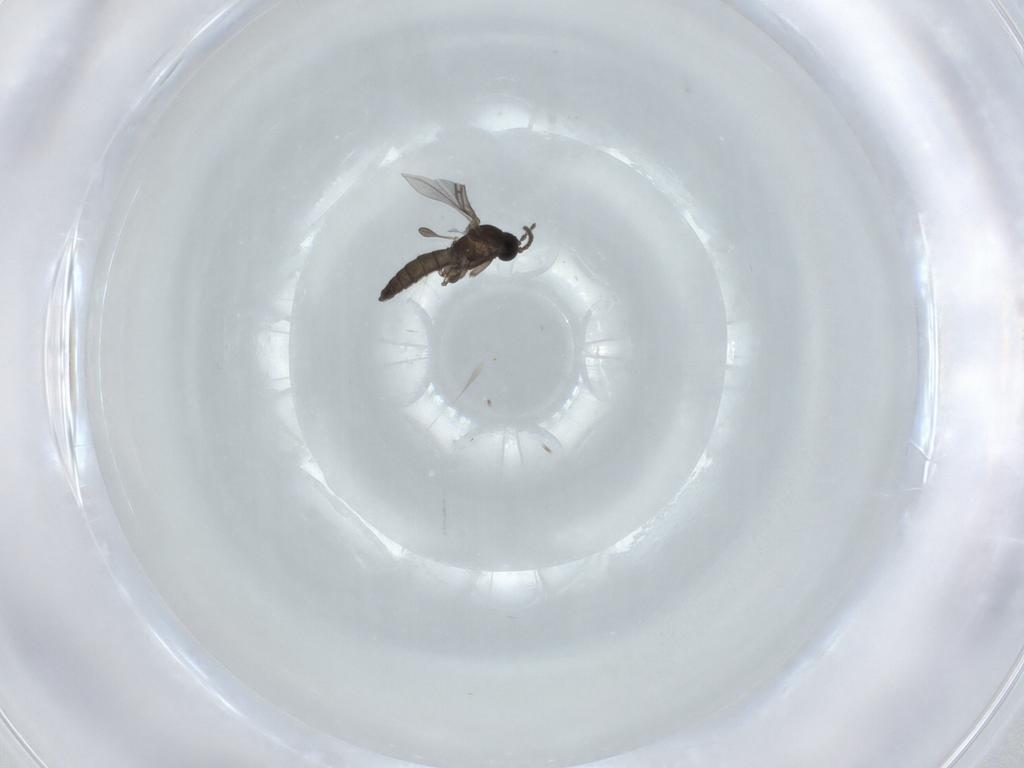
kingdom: Animalia
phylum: Arthropoda
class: Insecta
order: Diptera
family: Sciaridae
